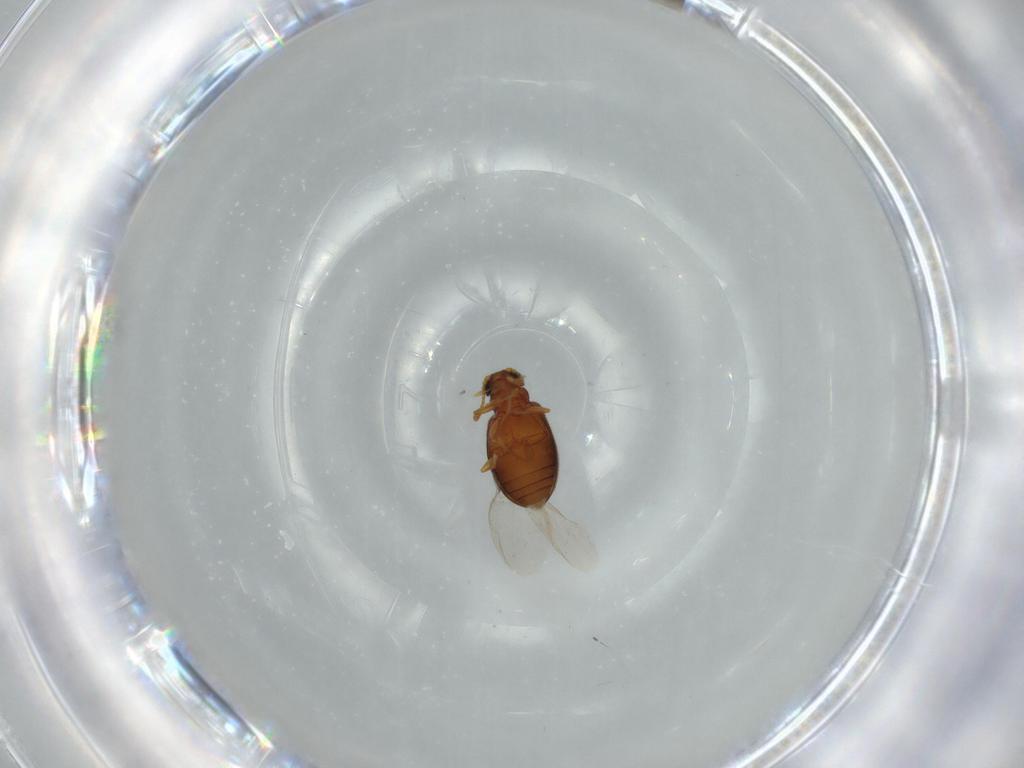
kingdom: Animalia
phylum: Arthropoda
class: Insecta
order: Coleoptera
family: Aderidae
